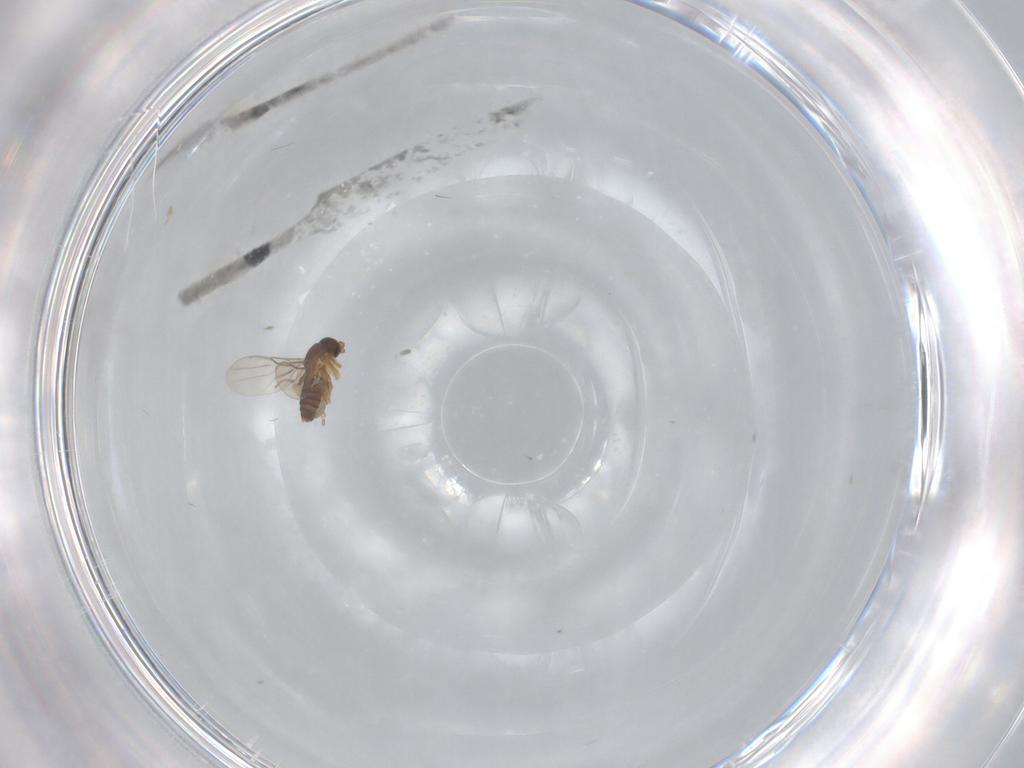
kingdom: Animalia
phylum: Arthropoda
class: Insecta
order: Diptera
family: Phoridae
